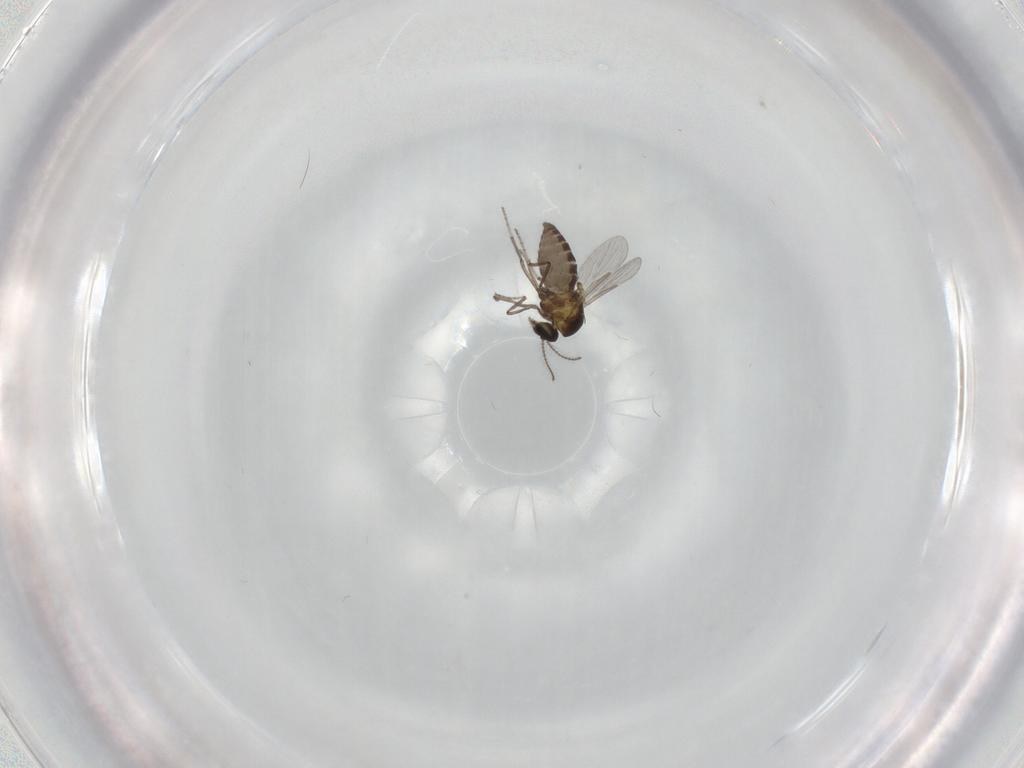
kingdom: Animalia
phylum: Arthropoda
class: Insecta
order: Diptera
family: Ceratopogonidae
